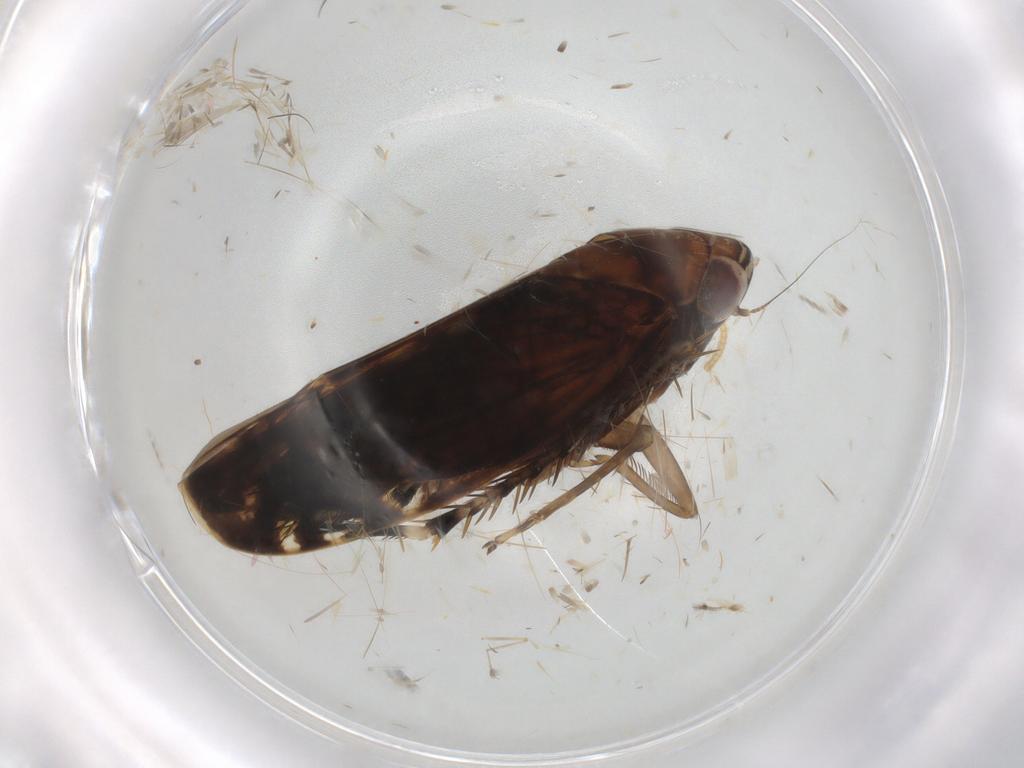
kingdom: Animalia
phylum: Arthropoda
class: Insecta
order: Hemiptera
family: Cicadellidae
